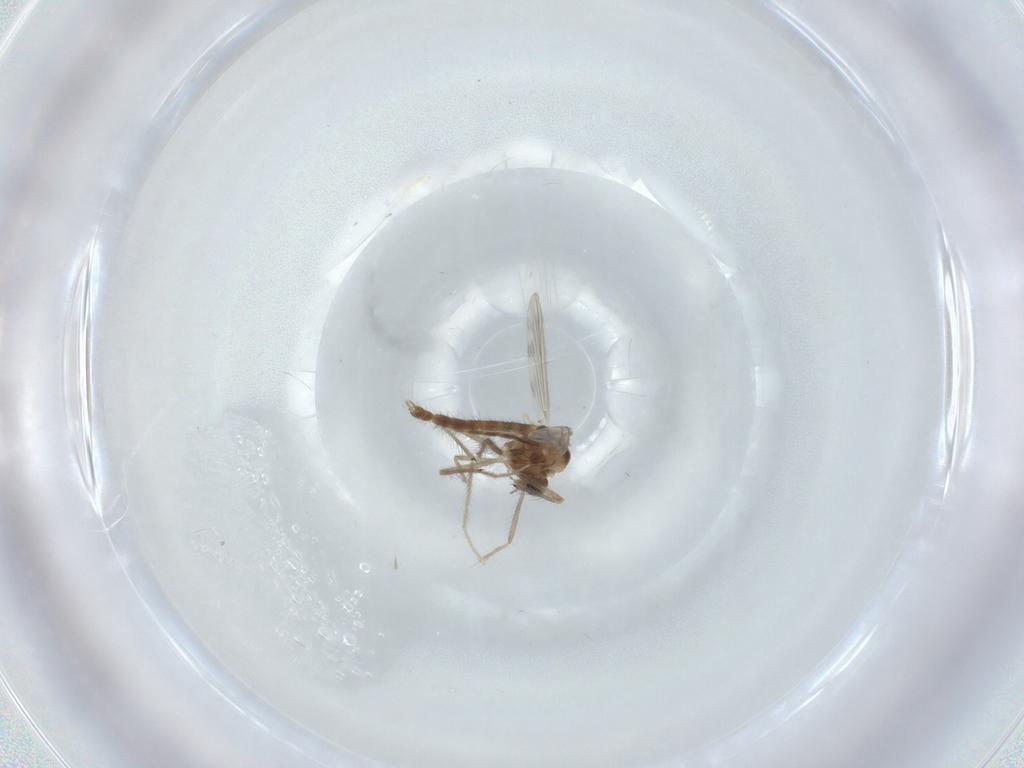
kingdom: Animalia
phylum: Arthropoda
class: Insecta
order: Diptera
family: Chironomidae
